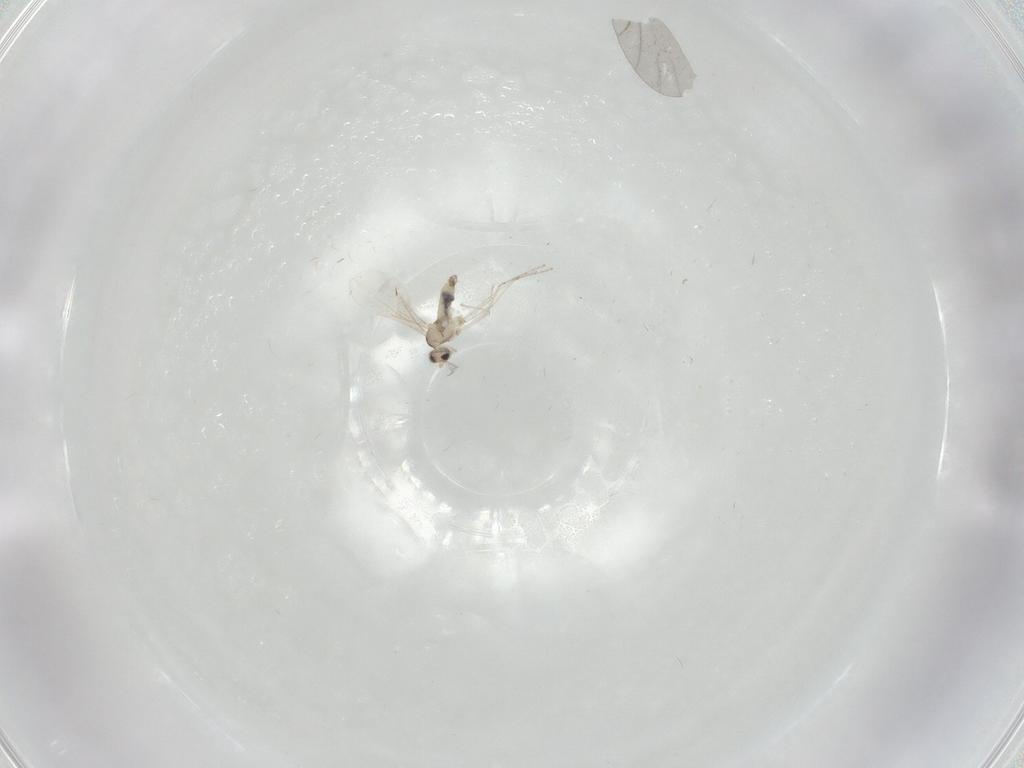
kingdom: Animalia
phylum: Arthropoda
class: Insecta
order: Diptera
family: Cecidomyiidae
